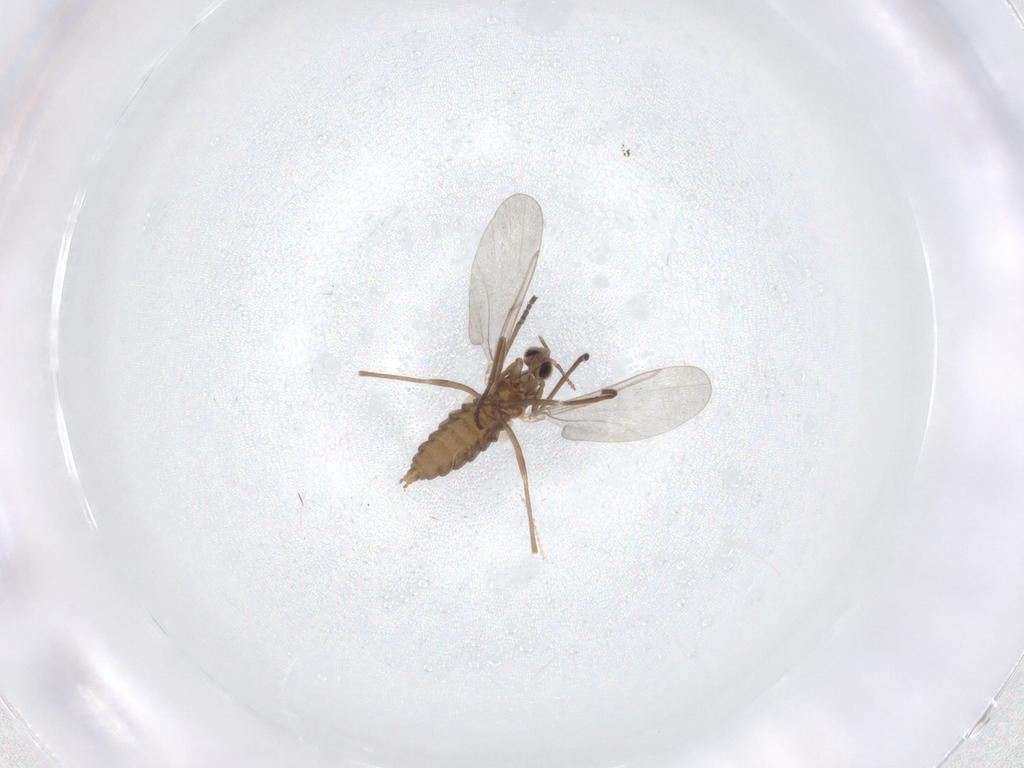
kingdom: Animalia
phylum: Arthropoda
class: Insecta
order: Diptera
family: Cecidomyiidae
